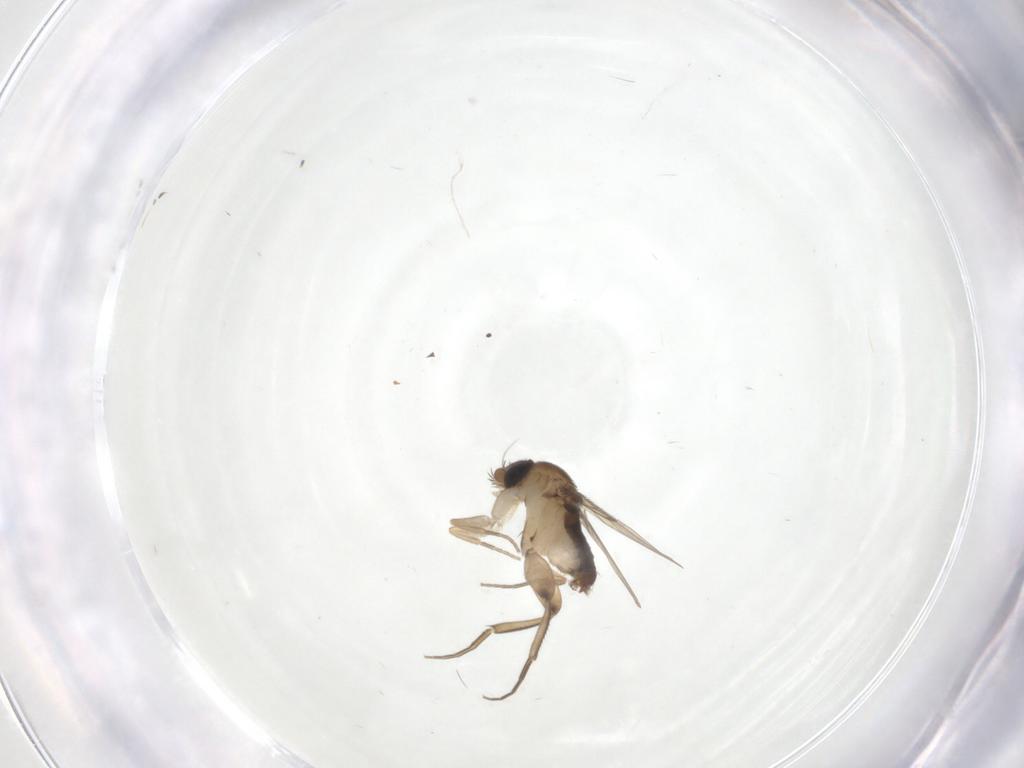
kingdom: Animalia
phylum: Arthropoda
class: Insecta
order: Diptera
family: Phoridae
